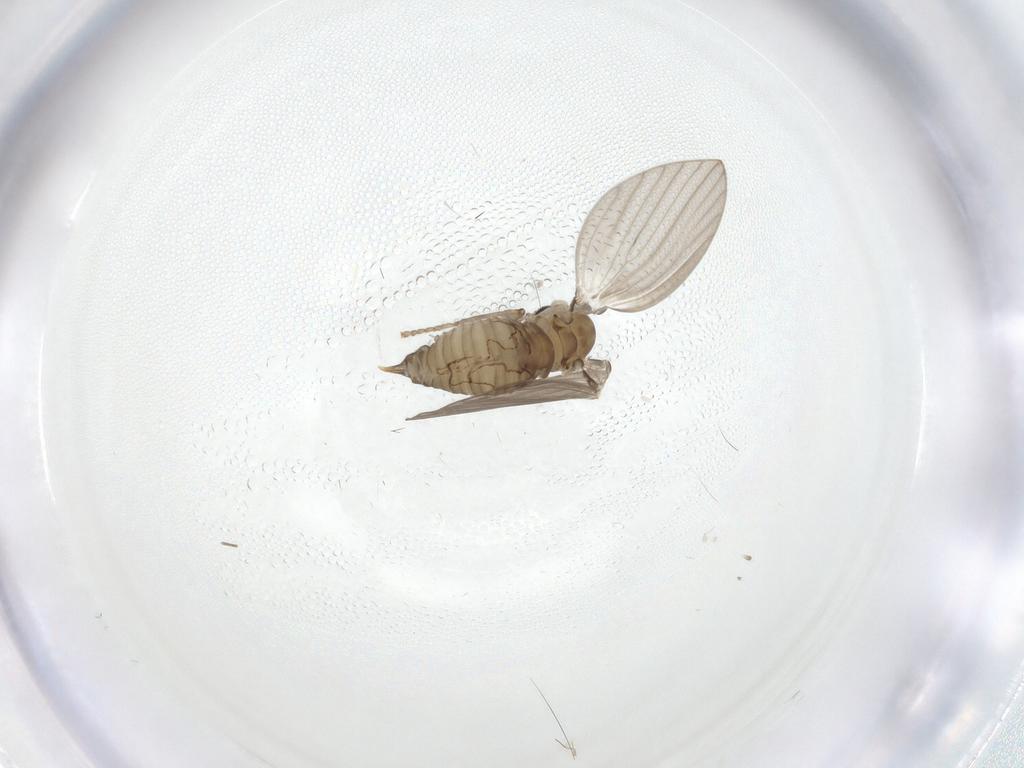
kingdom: Animalia
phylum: Arthropoda
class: Insecta
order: Diptera
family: Psychodidae
